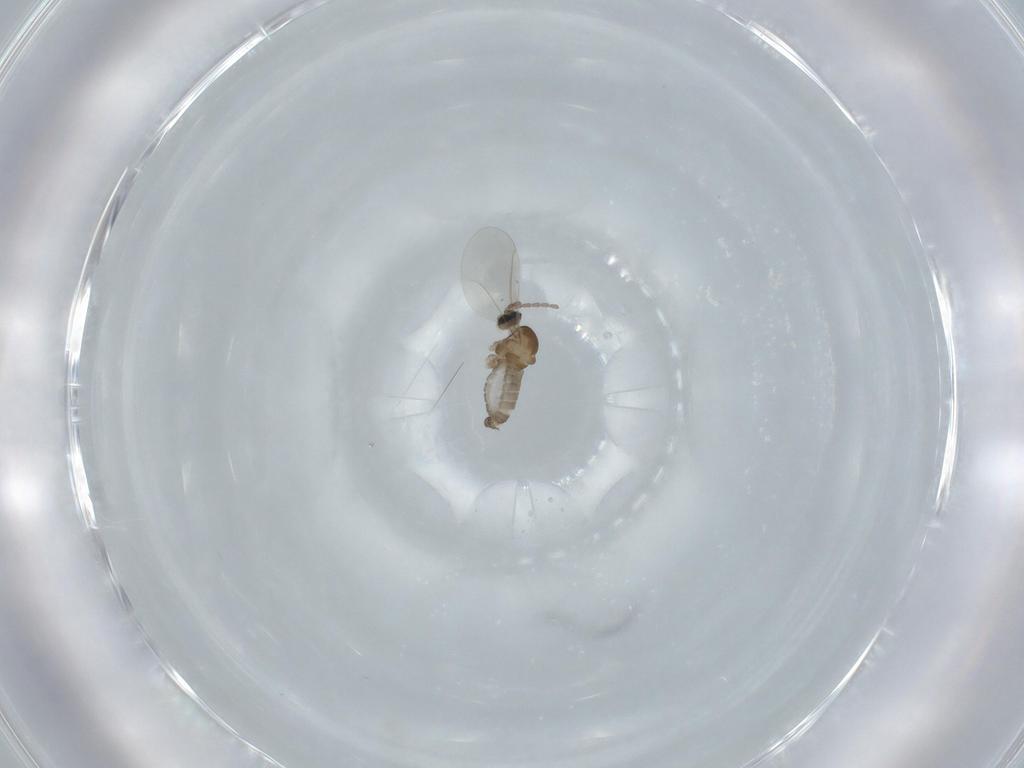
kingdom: Animalia
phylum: Arthropoda
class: Insecta
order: Diptera
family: Cecidomyiidae
